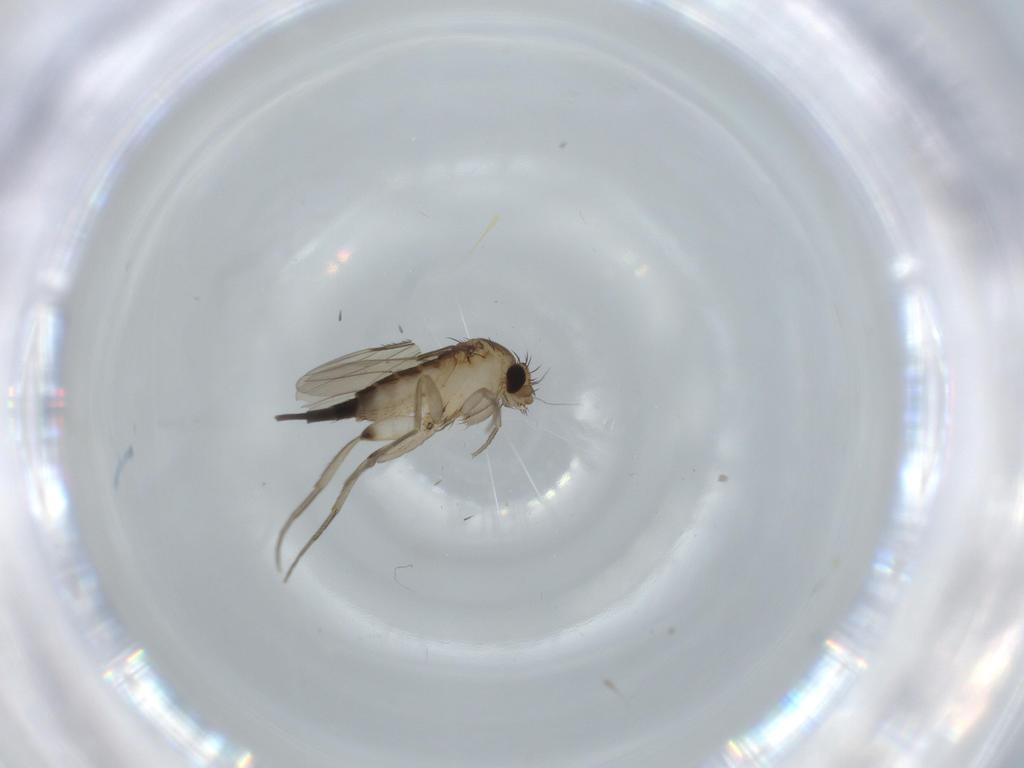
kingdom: Animalia
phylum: Arthropoda
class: Insecta
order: Diptera
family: Phoridae
